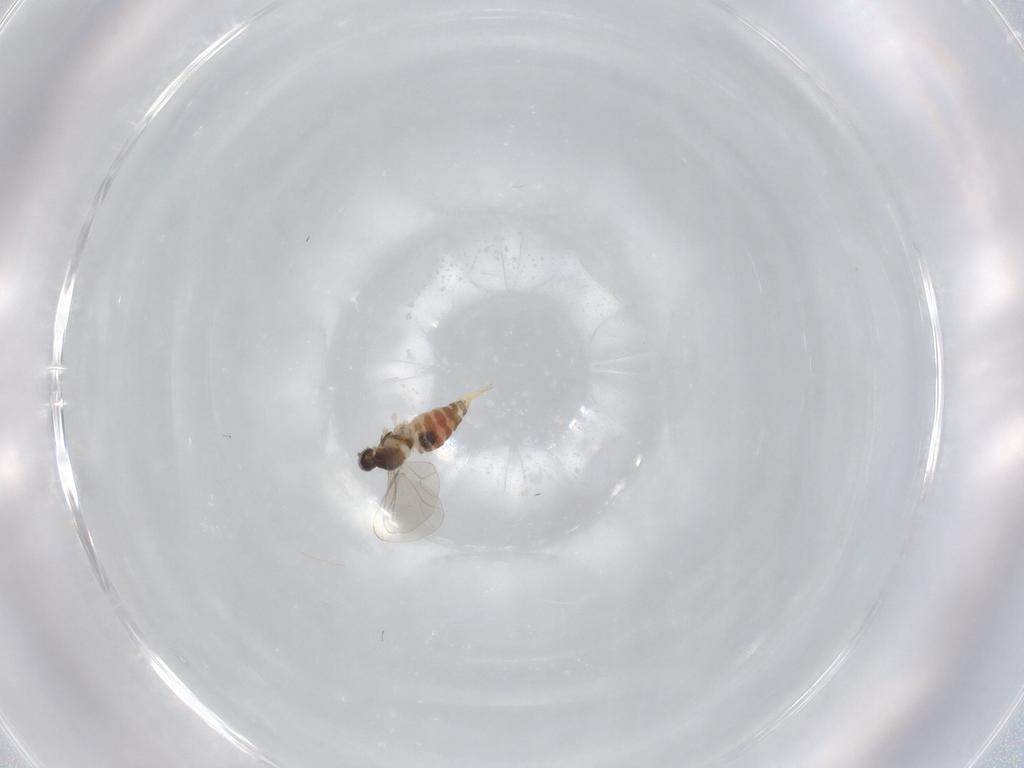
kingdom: Animalia
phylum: Arthropoda
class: Insecta
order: Diptera
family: Cecidomyiidae
